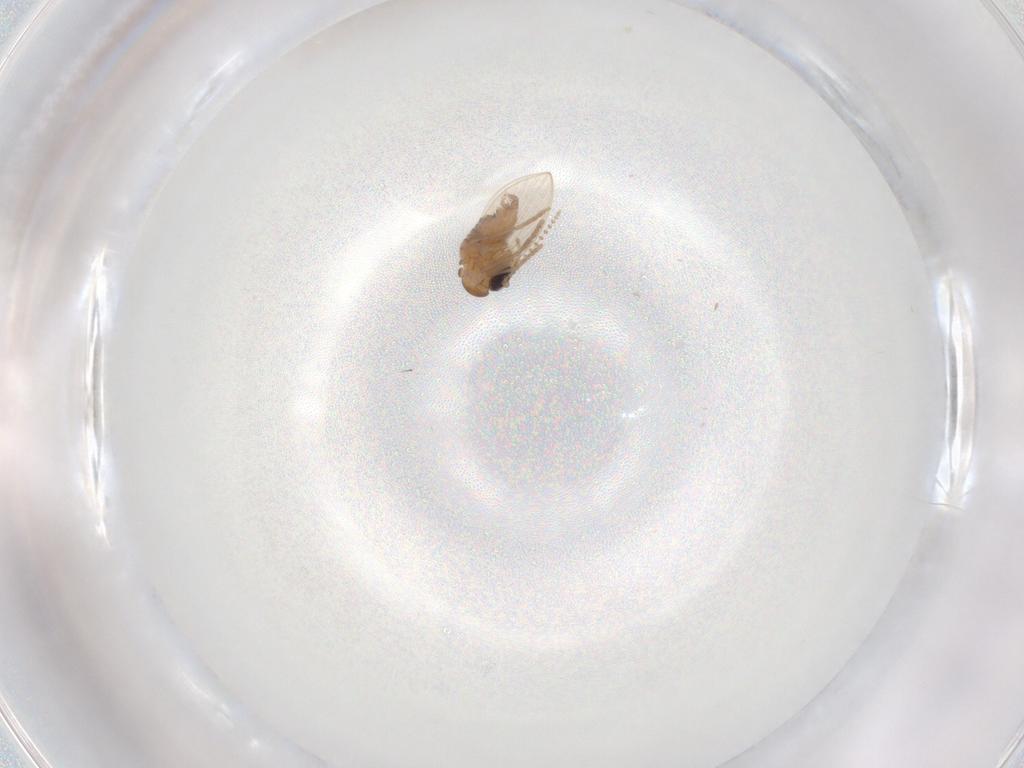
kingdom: Animalia
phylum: Arthropoda
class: Insecta
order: Diptera
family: Psychodidae
